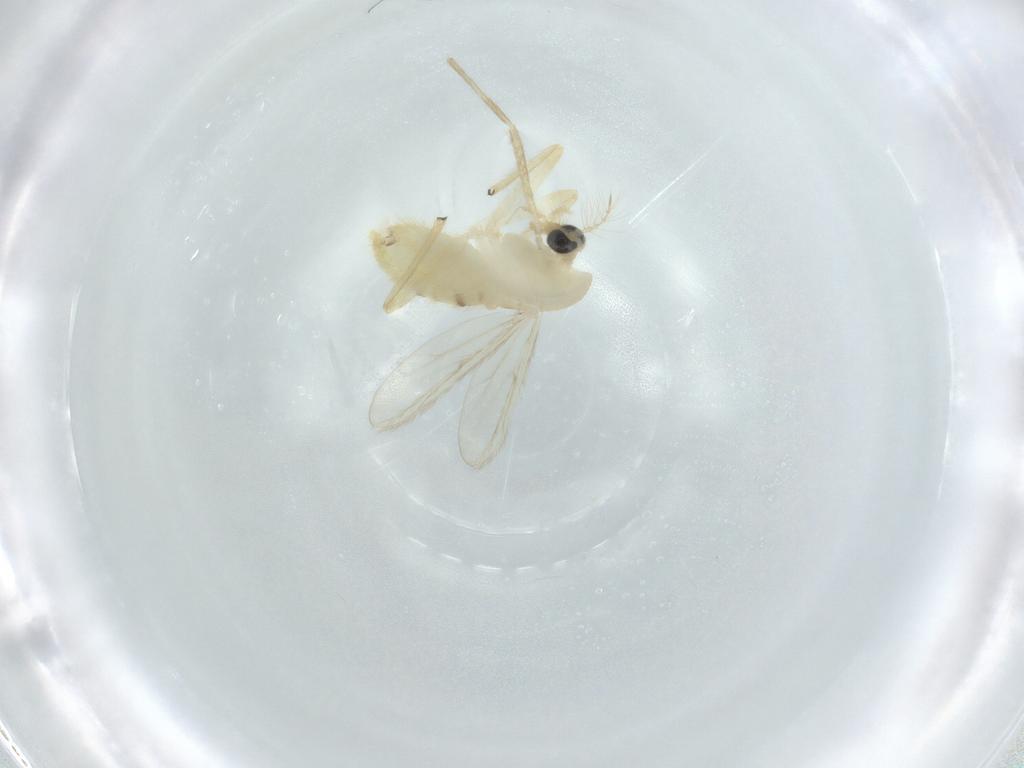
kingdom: Animalia
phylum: Arthropoda
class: Insecta
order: Diptera
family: Chironomidae
